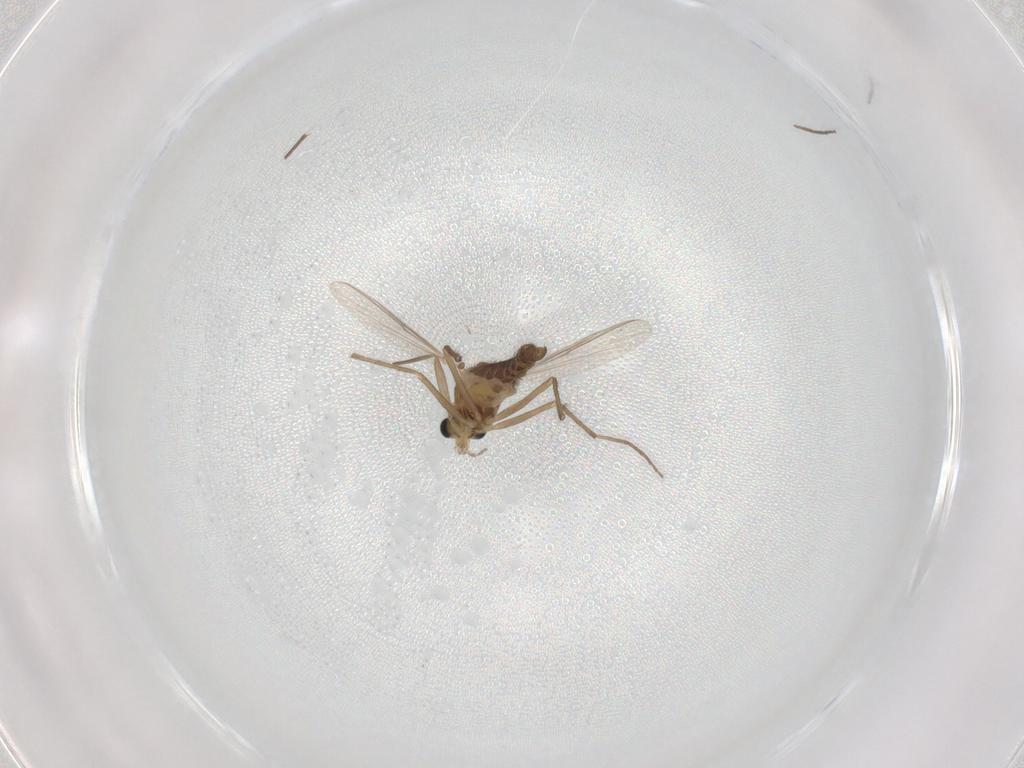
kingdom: Animalia
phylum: Arthropoda
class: Insecta
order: Diptera
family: Chironomidae
